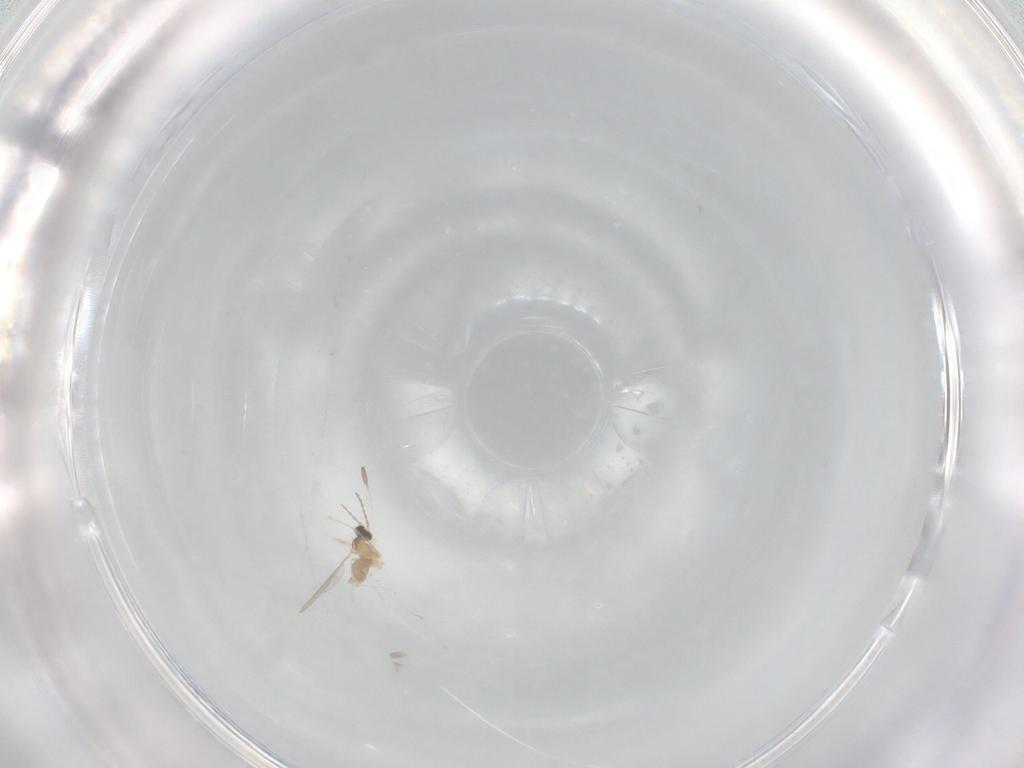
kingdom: Animalia
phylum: Arthropoda
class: Insecta
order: Diptera
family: Cecidomyiidae
